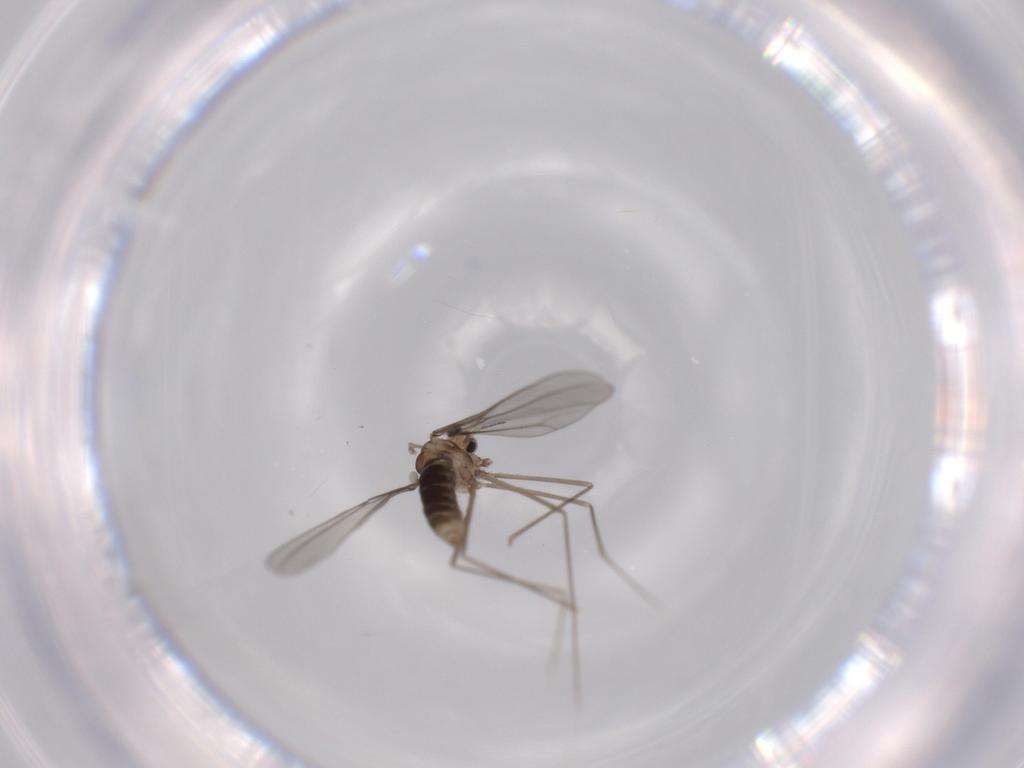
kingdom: Animalia
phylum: Arthropoda
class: Insecta
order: Diptera
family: Cecidomyiidae
